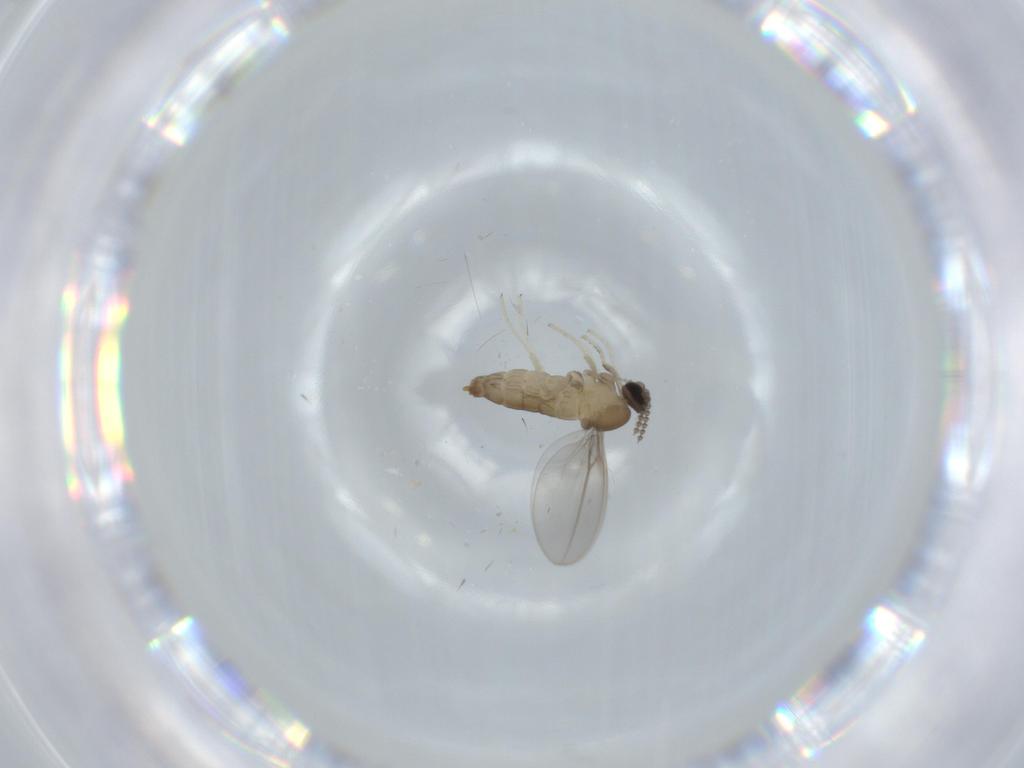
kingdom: Animalia
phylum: Arthropoda
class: Insecta
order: Diptera
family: Cecidomyiidae
